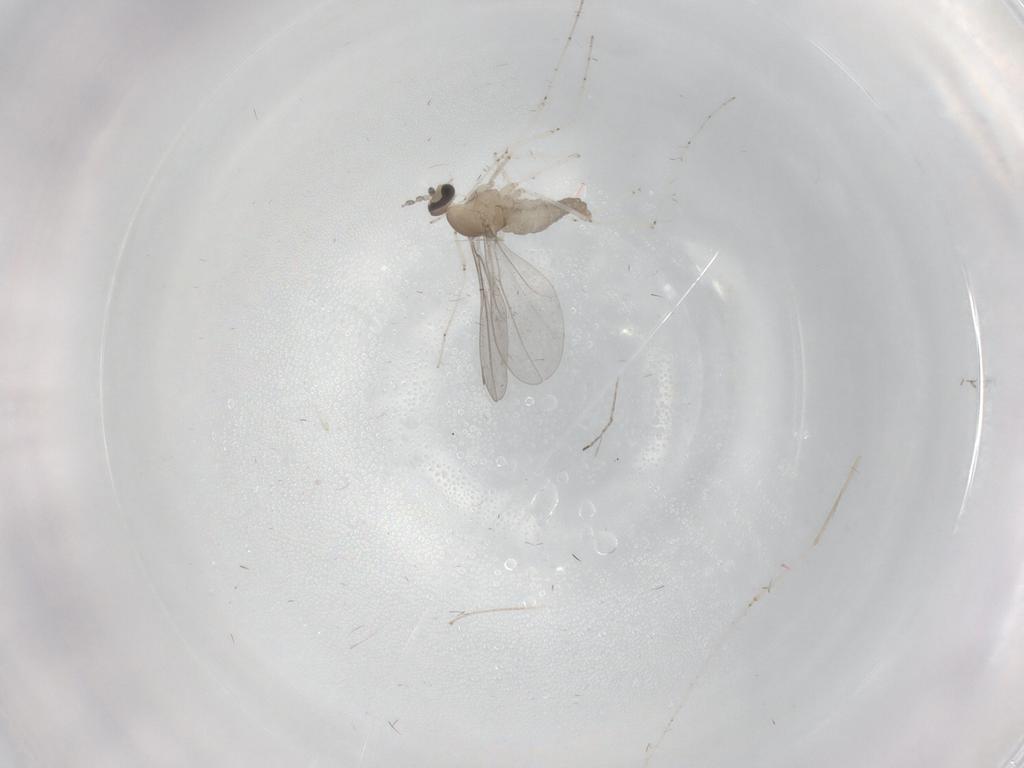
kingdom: Animalia
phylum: Arthropoda
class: Insecta
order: Diptera
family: Cecidomyiidae
